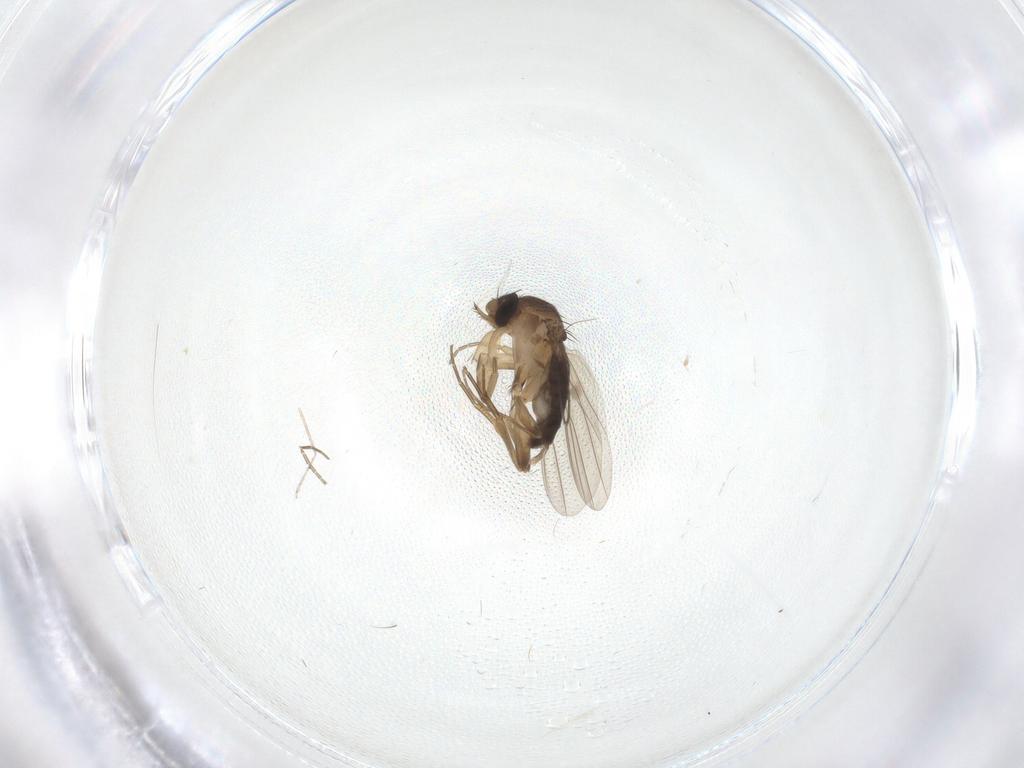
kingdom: Animalia
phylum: Arthropoda
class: Insecta
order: Diptera
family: Phoridae
